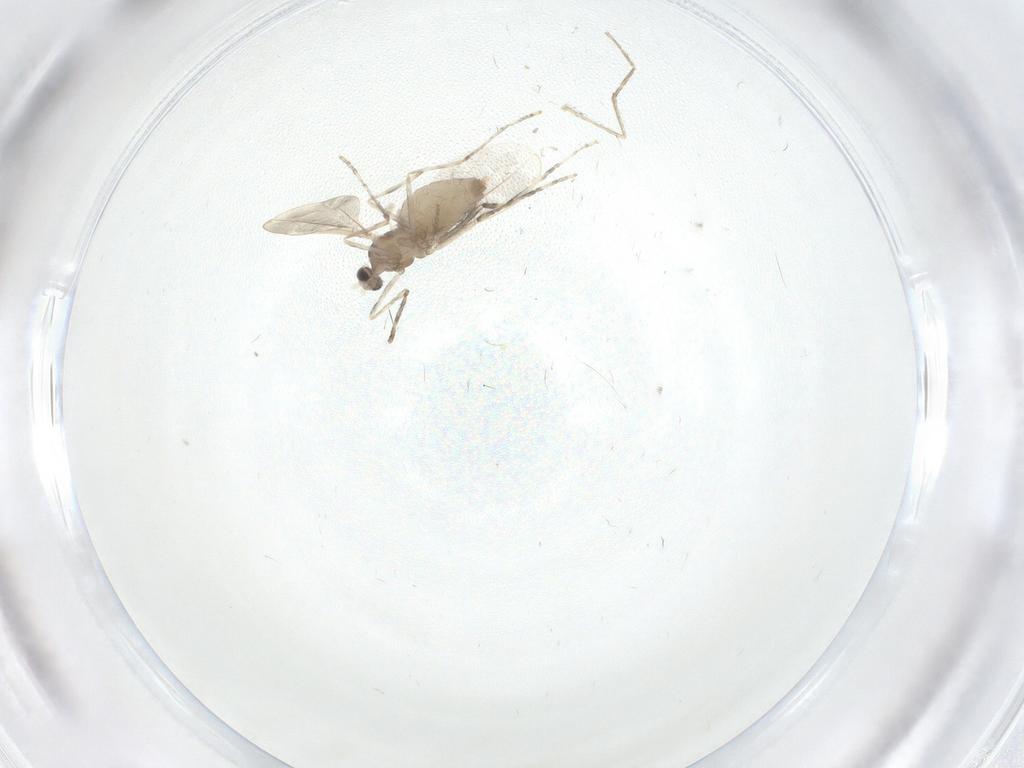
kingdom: Animalia
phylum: Arthropoda
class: Insecta
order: Diptera
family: Cecidomyiidae
